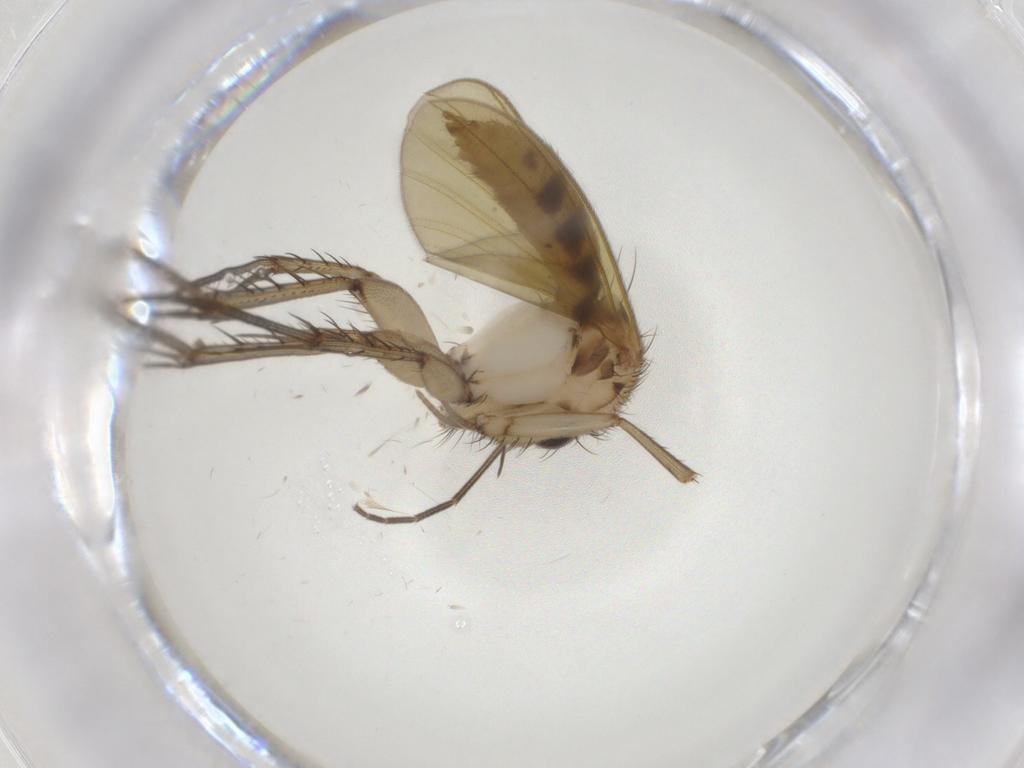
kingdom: Animalia
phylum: Arthropoda
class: Insecta
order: Diptera
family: Mycetophilidae
